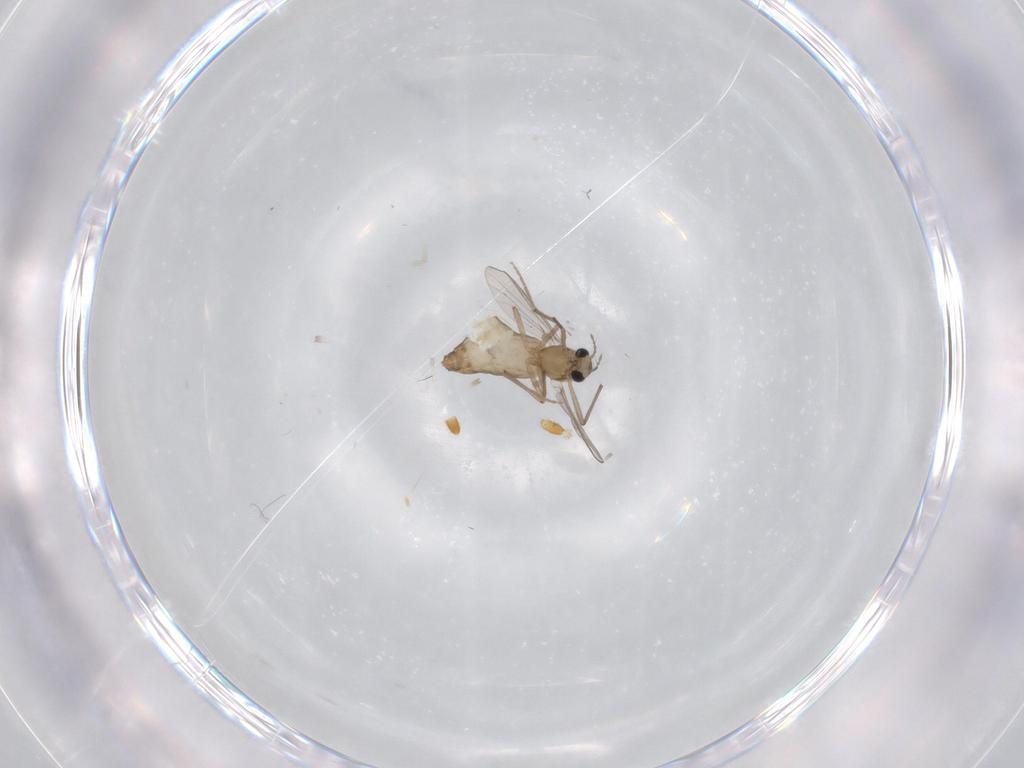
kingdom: Animalia
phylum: Arthropoda
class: Insecta
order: Diptera
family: Chironomidae
